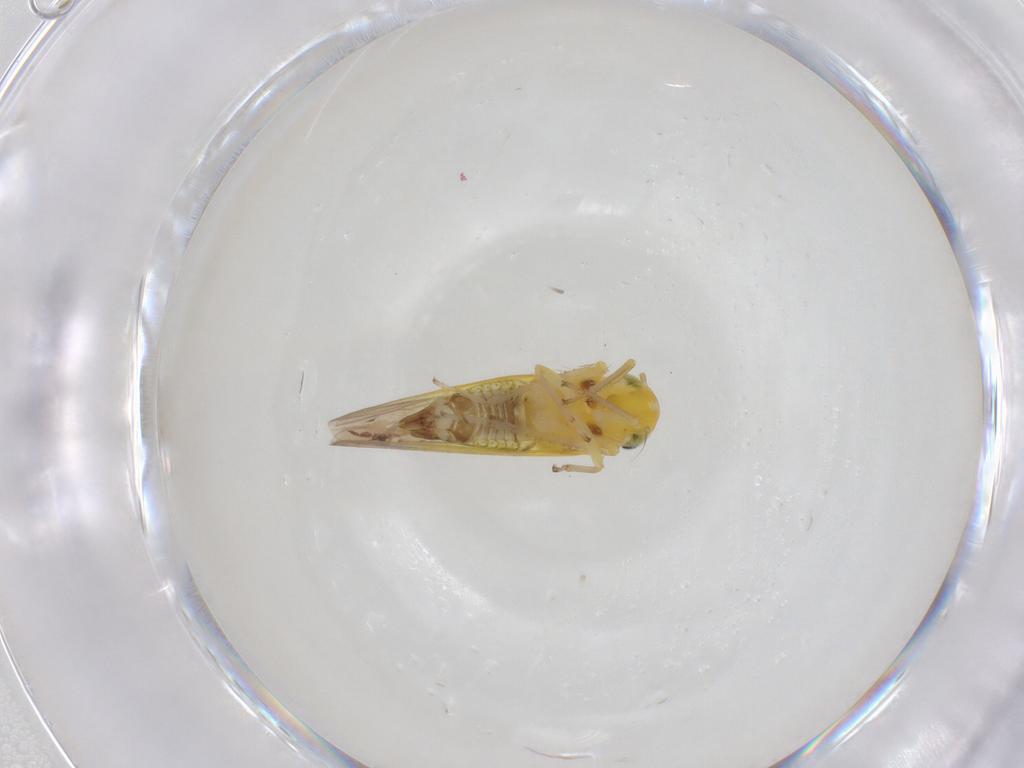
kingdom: Animalia
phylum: Arthropoda
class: Insecta
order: Hemiptera
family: Cicadellidae
